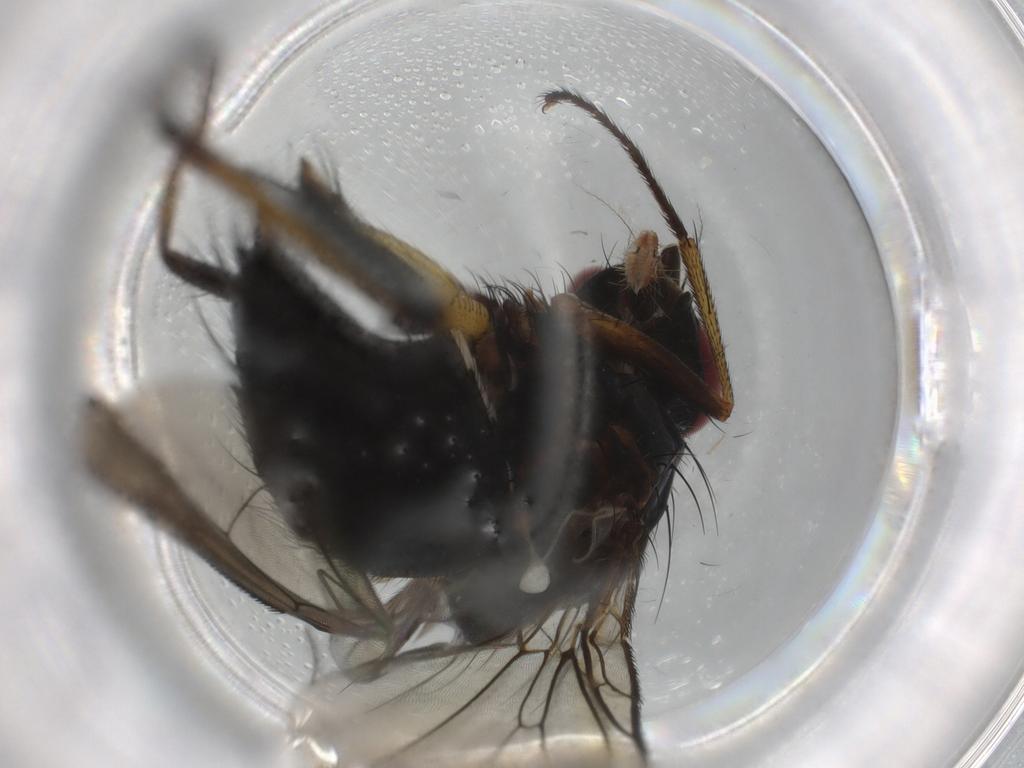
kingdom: Animalia
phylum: Arthropoda
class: Insecta
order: Diptera
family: Anthomyiidae
